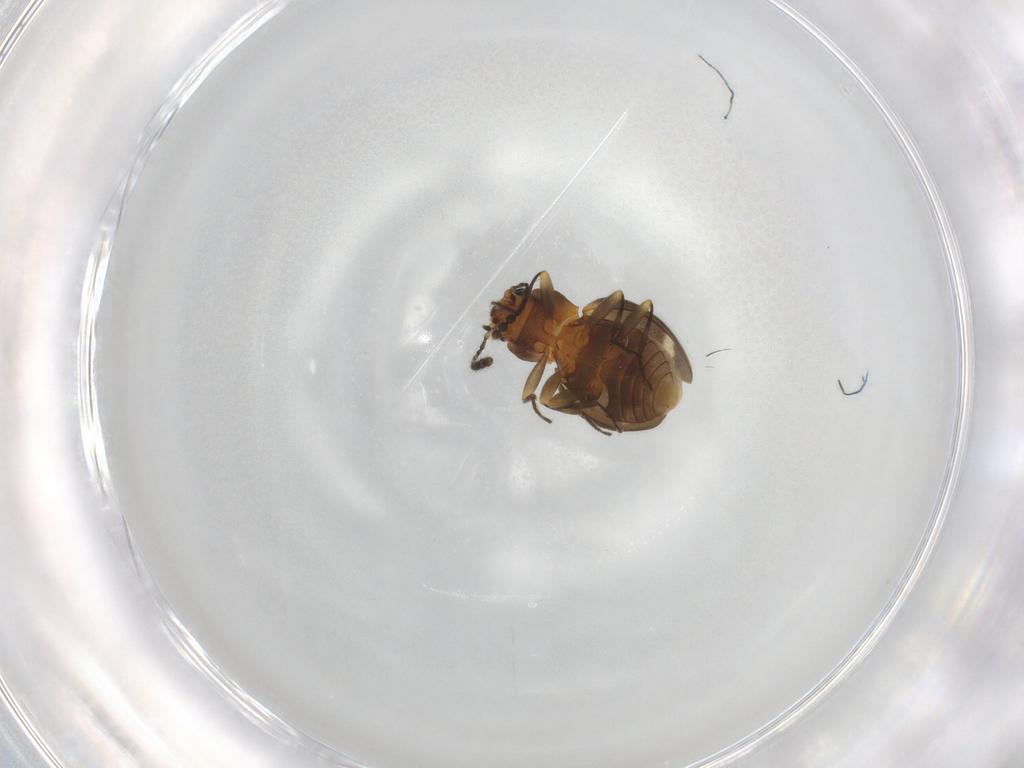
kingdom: Animalia
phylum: Arthropoda
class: Insecta
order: Coleoptera
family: Erotylidae
